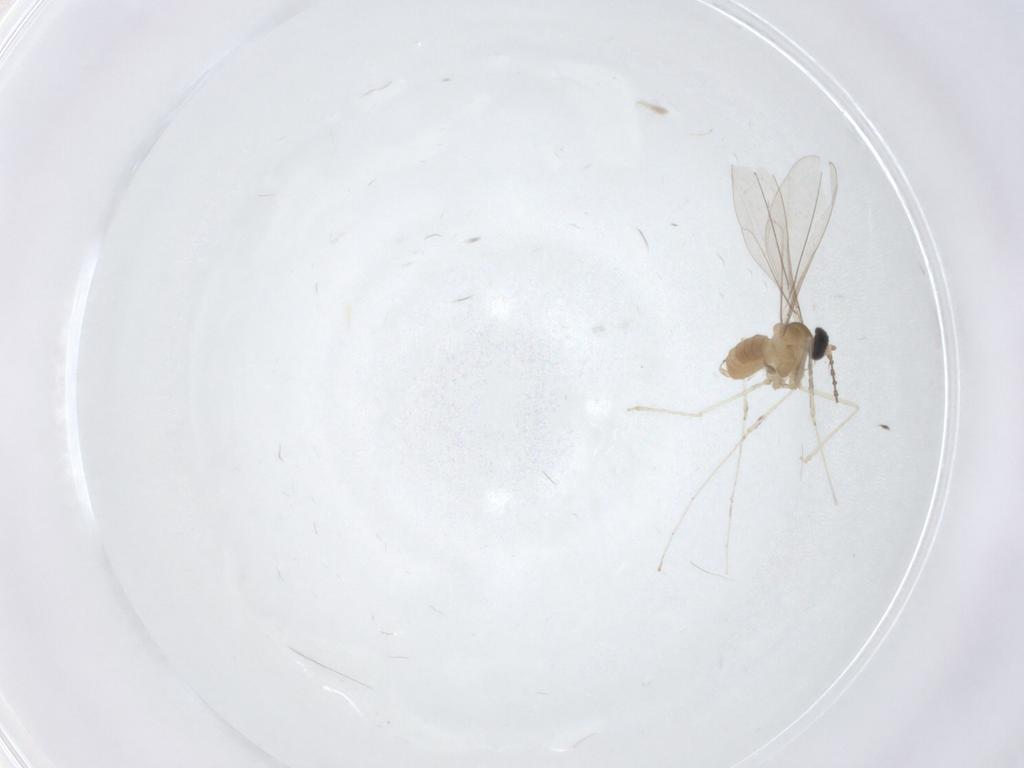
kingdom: Animalia
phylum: Arthropoda
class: Insecta
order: Diptera
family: Cecidomyiidae
